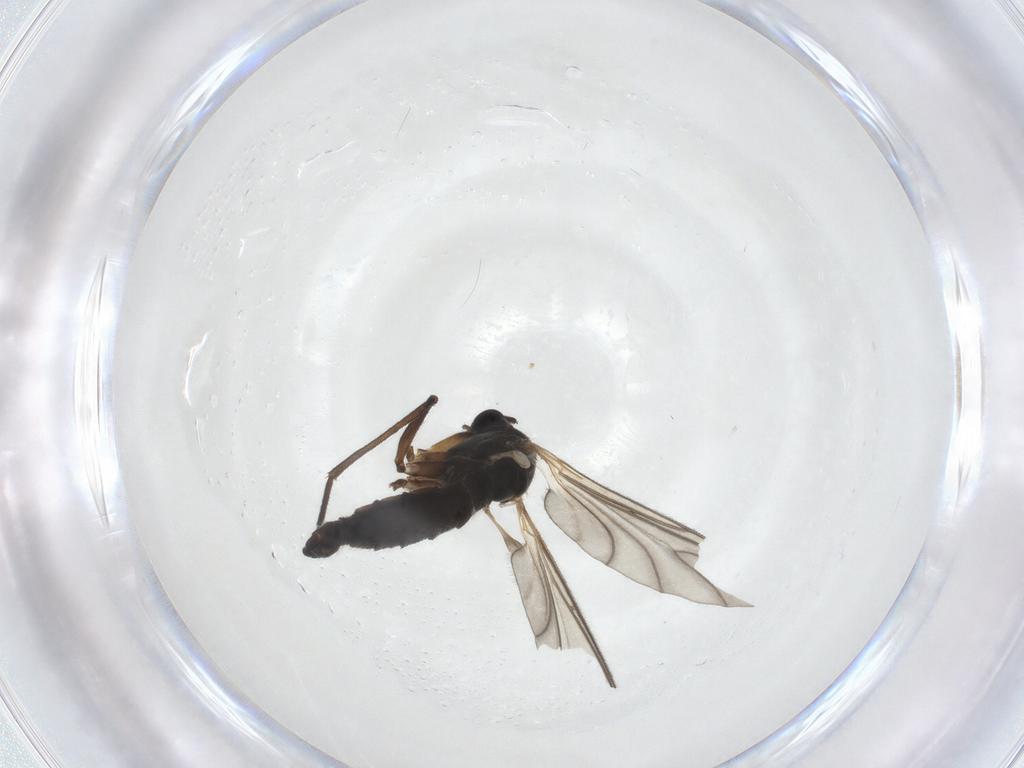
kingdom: Animalia
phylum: Arthropoda
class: Insecta
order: Diptera
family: Sciaridae
